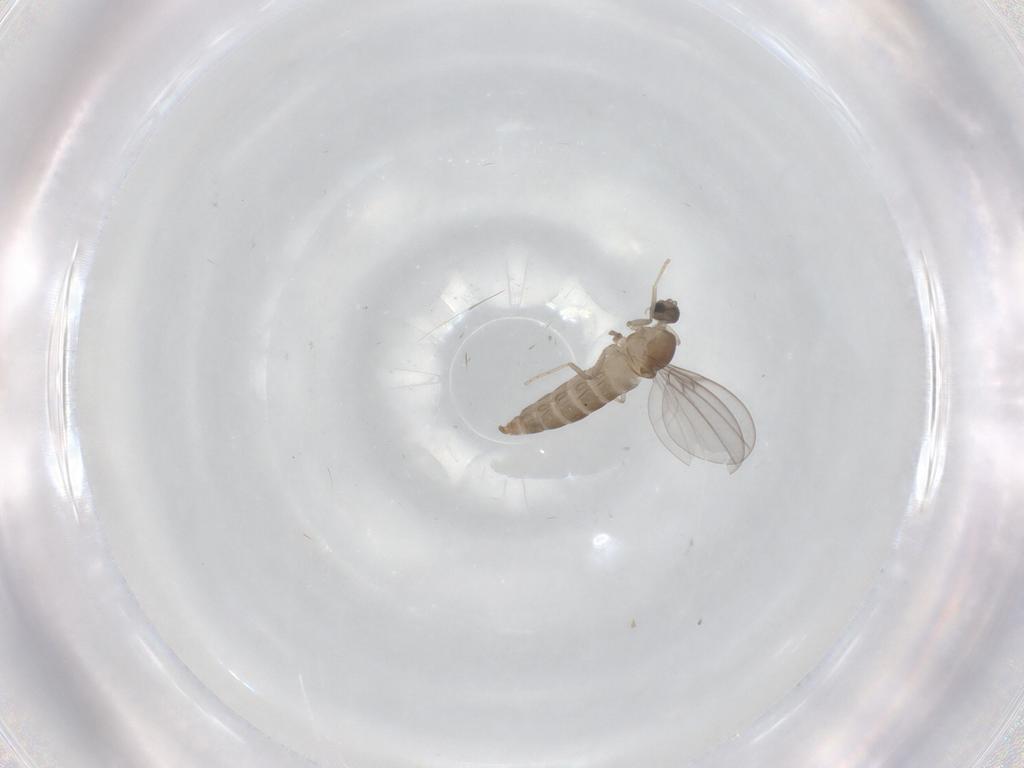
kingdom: Animalia
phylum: Arthropoda
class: Insecta
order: Diptera
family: Cecidomyiidae
